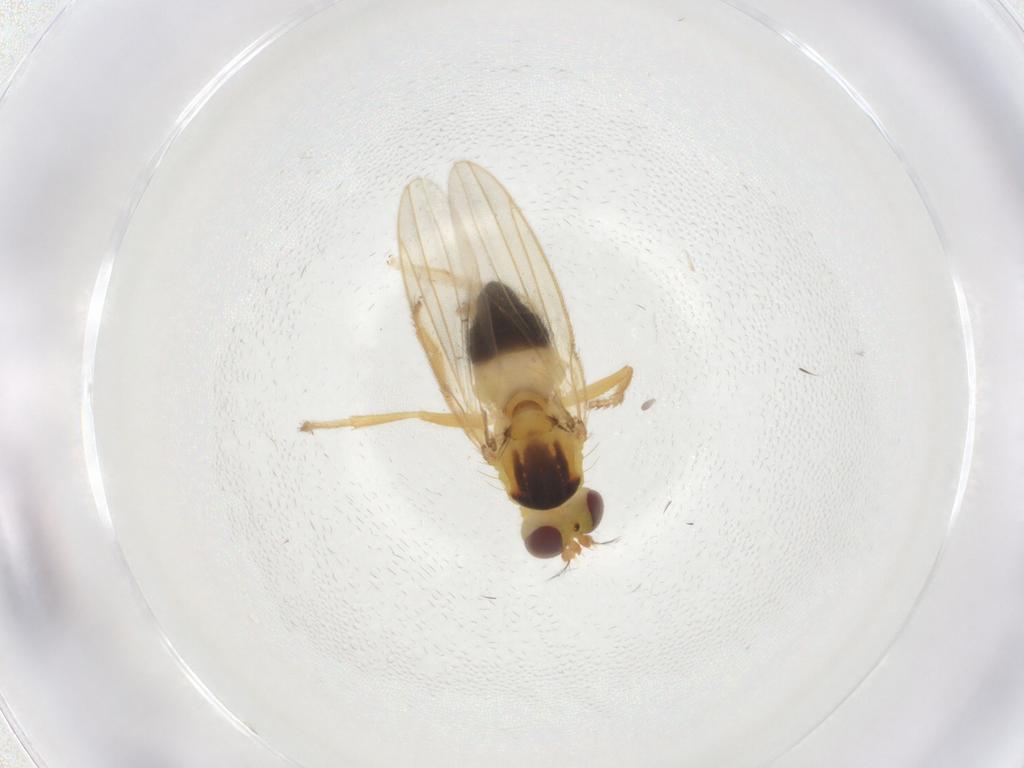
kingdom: Animalia
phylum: Arthropoda
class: Insecta
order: Diptera
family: Periscelididae
